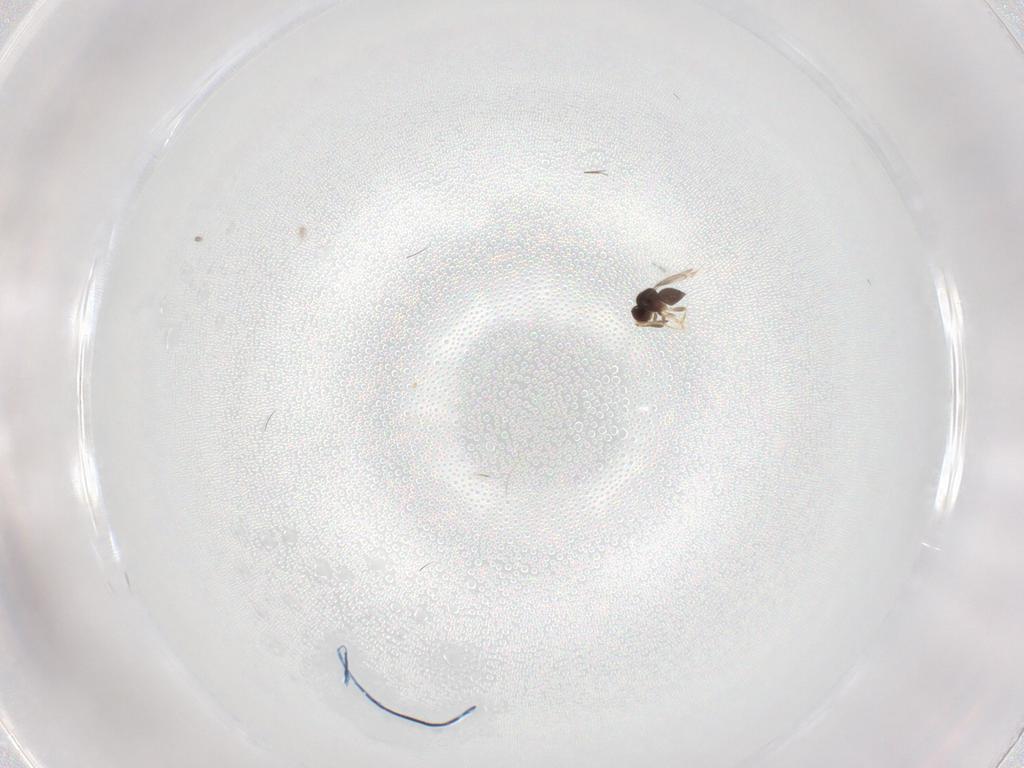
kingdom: Animalia
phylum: Arthropoda
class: Insecta
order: Hymenoptera
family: Ceraphronidae
